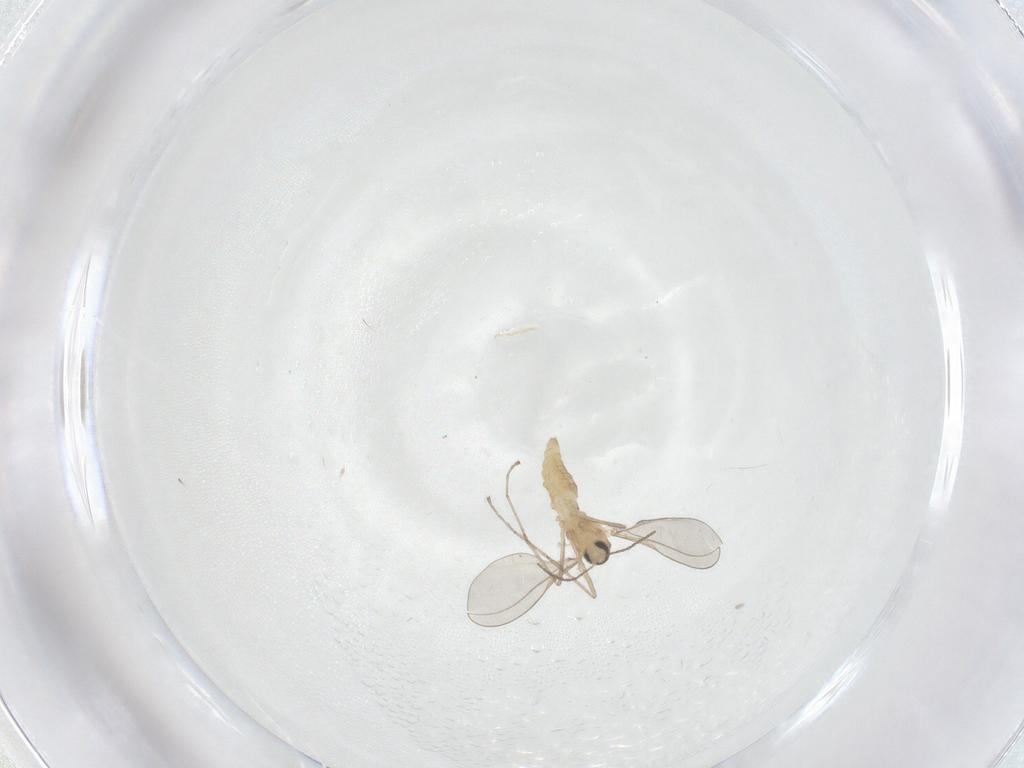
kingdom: Animalia
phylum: Arthropoda
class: Insecta
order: Diptera
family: Cecidomyiidae
